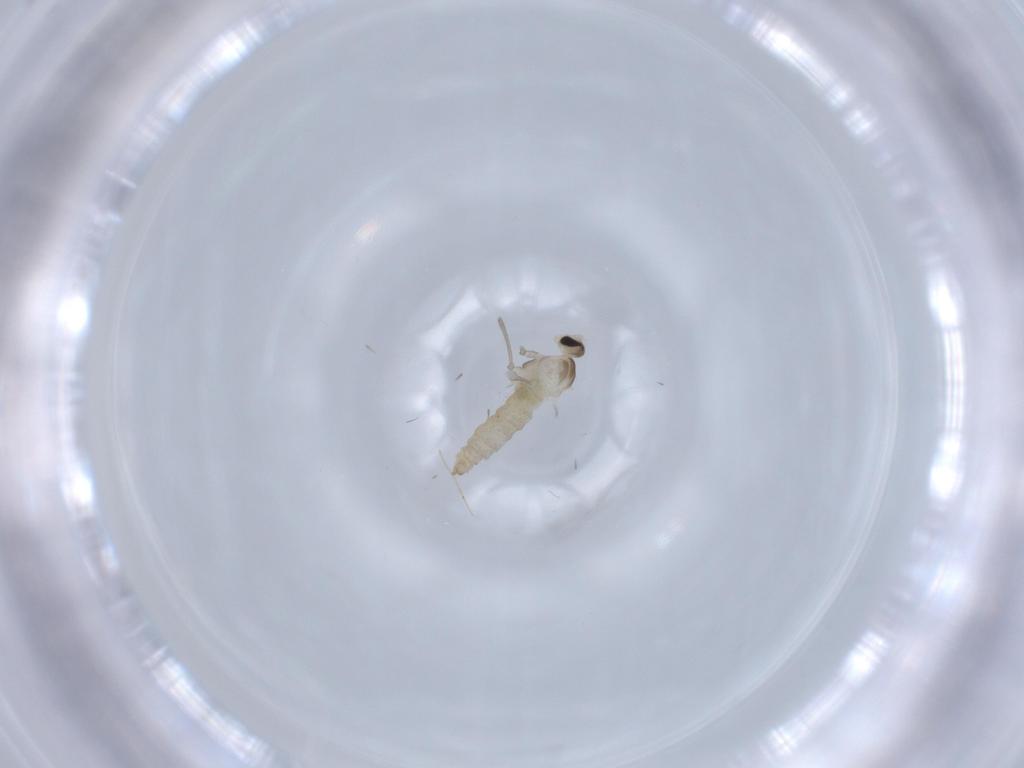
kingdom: Animalia
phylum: Arthropoda
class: Insecta
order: Diptera
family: Cecidomyiidae
